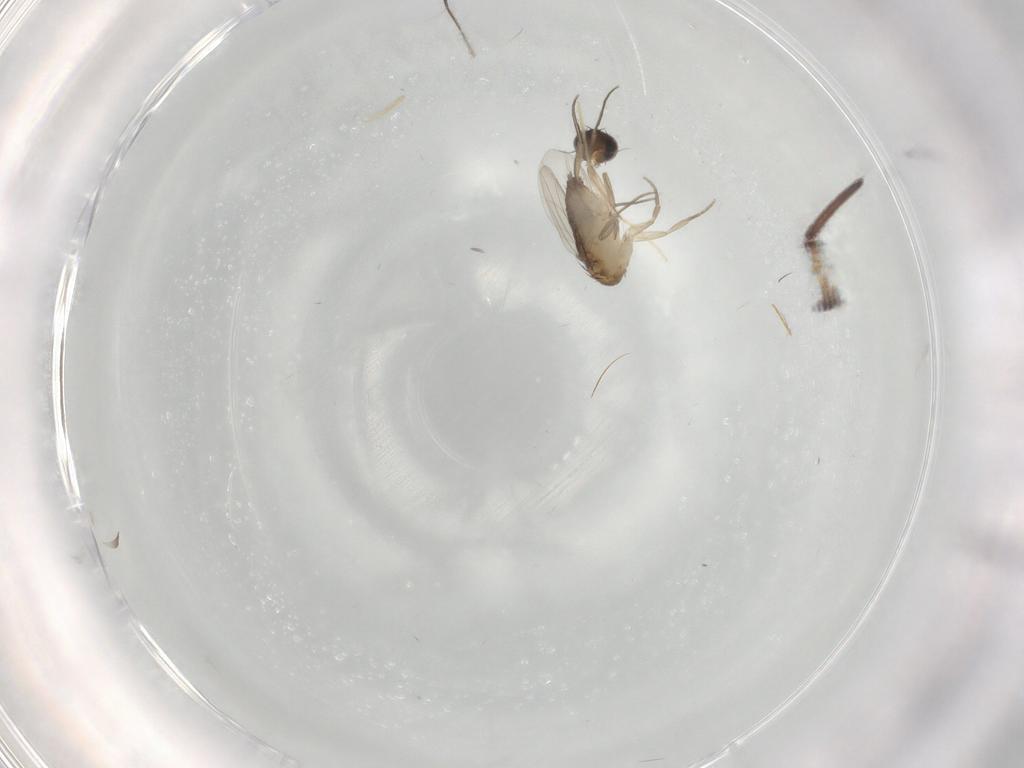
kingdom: Animalia
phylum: Arthropoda
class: Insecta
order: Diptera
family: Phoridae
